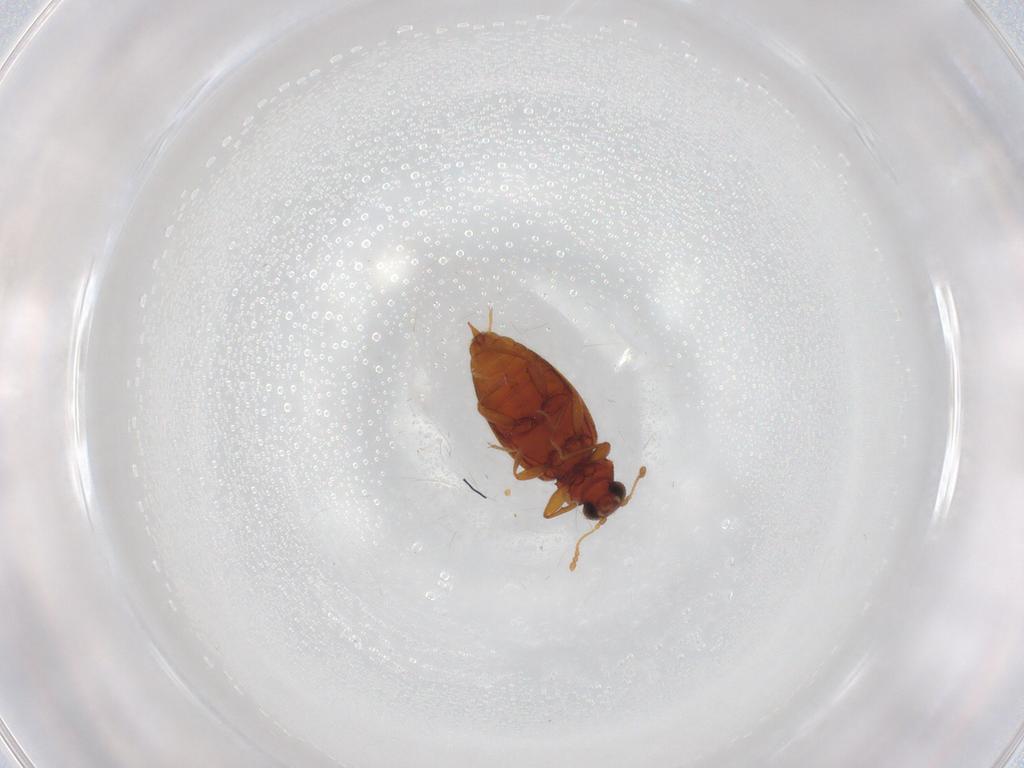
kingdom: Animalia
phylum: Arthropoda
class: Insecta
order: Coleoptera
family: Latridiidae
